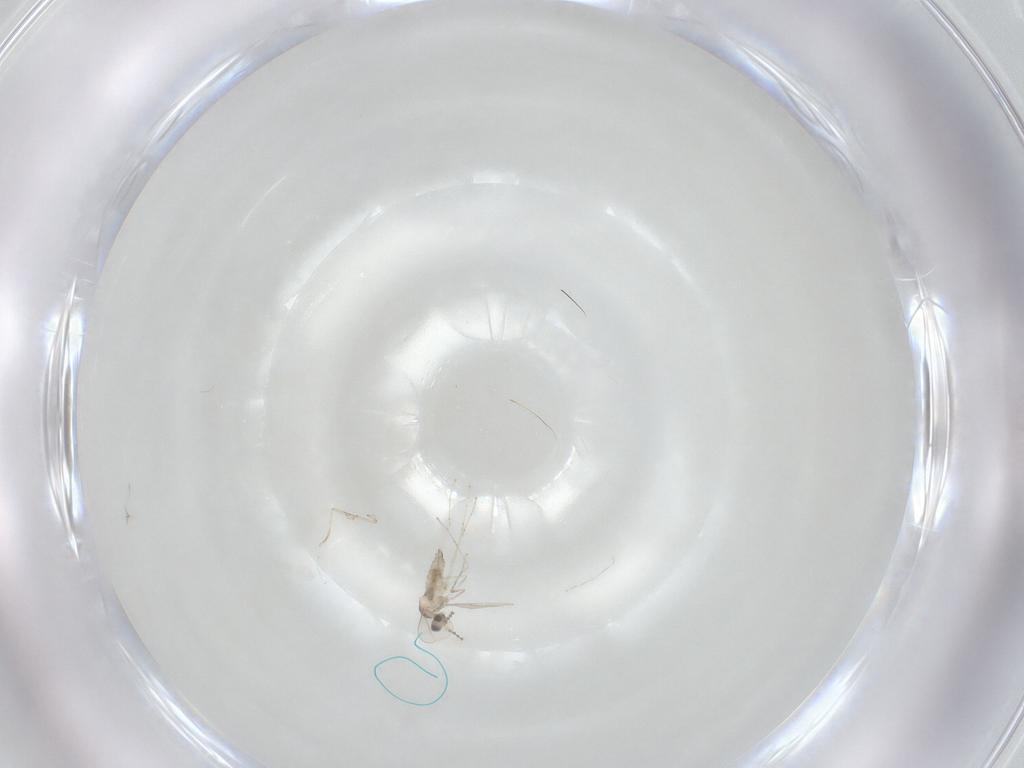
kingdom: Animalia
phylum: Arthropoda
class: Insecta
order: Diptera
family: Cecidomyiidae
